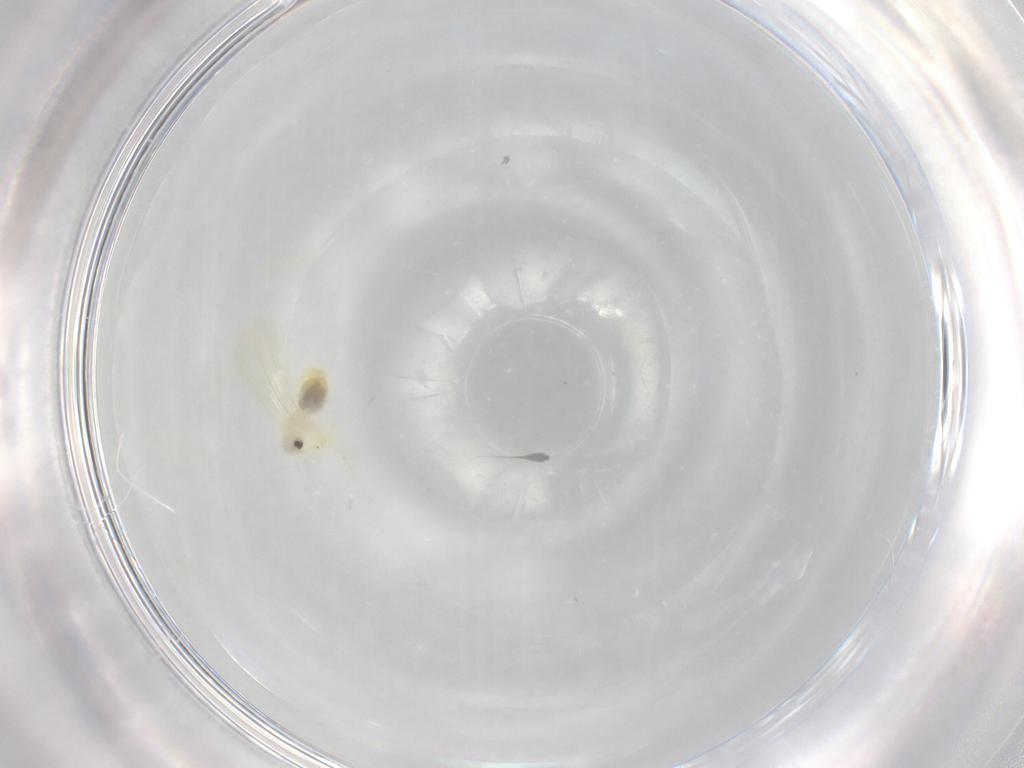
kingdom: Animalia
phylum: Arthropoda
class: Insecta
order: Hemiptera
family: Aleyrodidae
